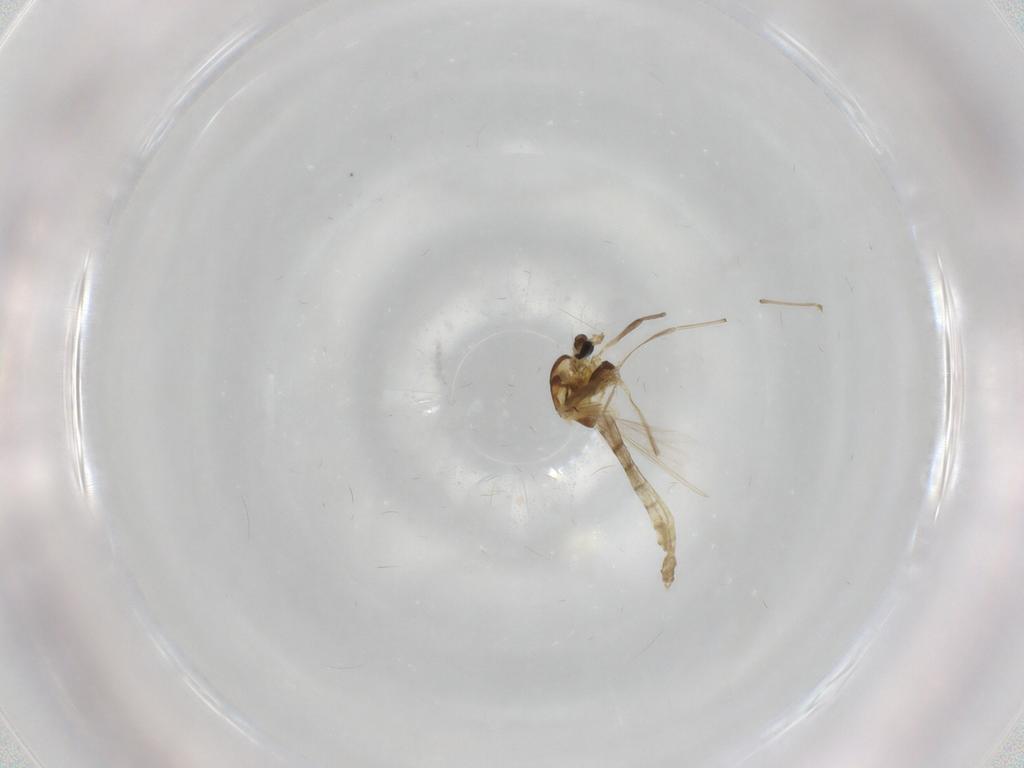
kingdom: Animalia
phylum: Arthropoda
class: Insecta
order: Diptera
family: Chironomidae
